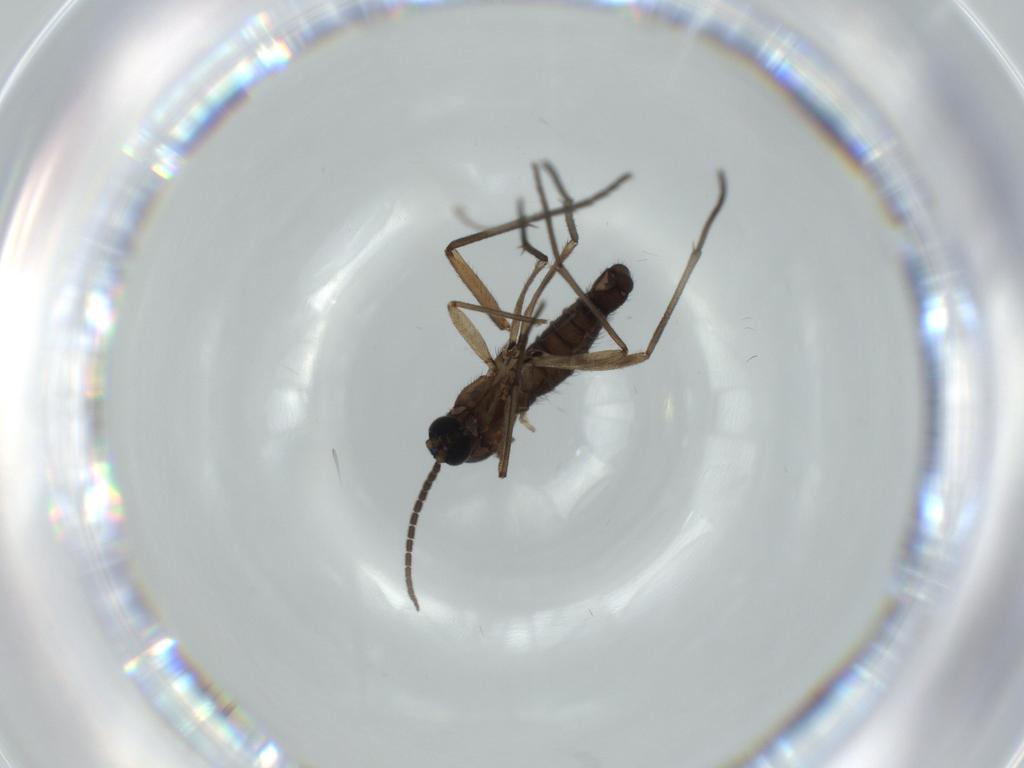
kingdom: Animalia
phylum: Arthropoda
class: Insecta
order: Diptera
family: Sciaridae
